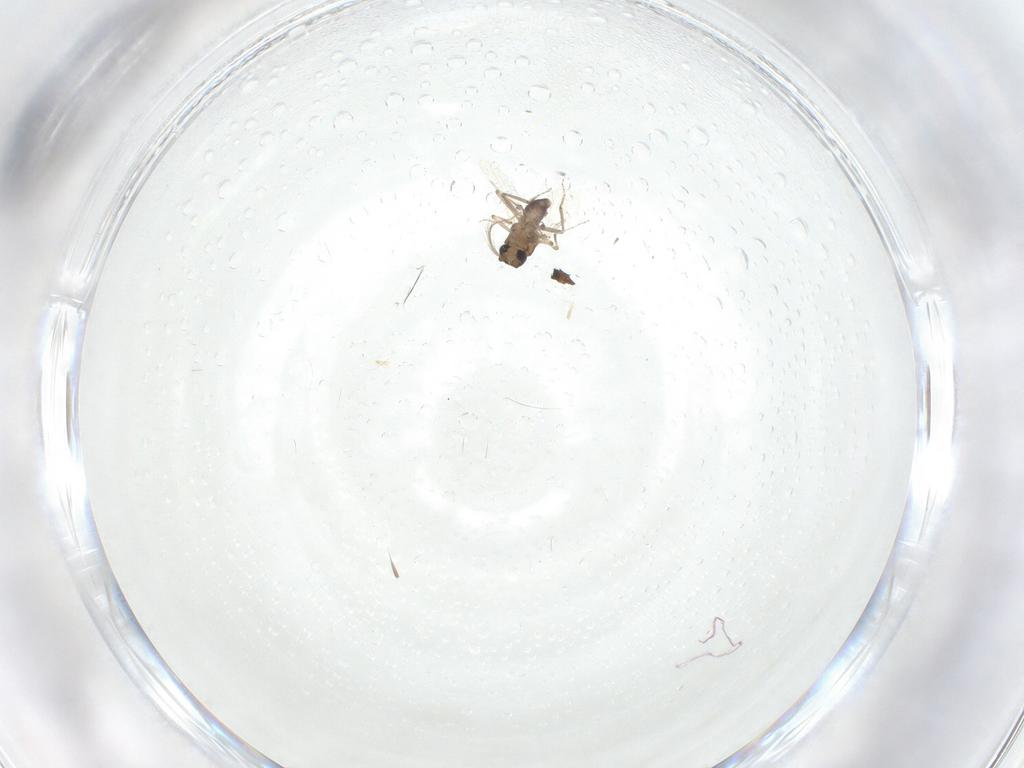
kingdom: Animalia
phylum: Arthropoda
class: Insecta
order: Diptera
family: Ceratopogonidae
